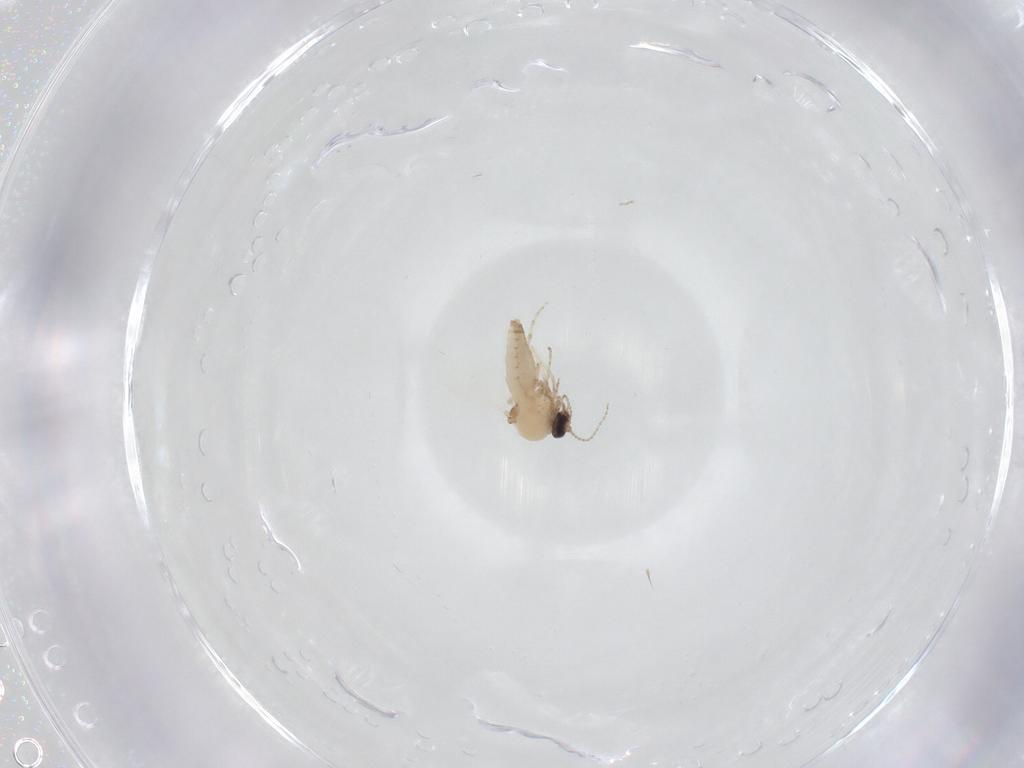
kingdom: Animalia
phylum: Arthropoda
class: Insecta
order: Diptera
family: Ceratopogonidae
